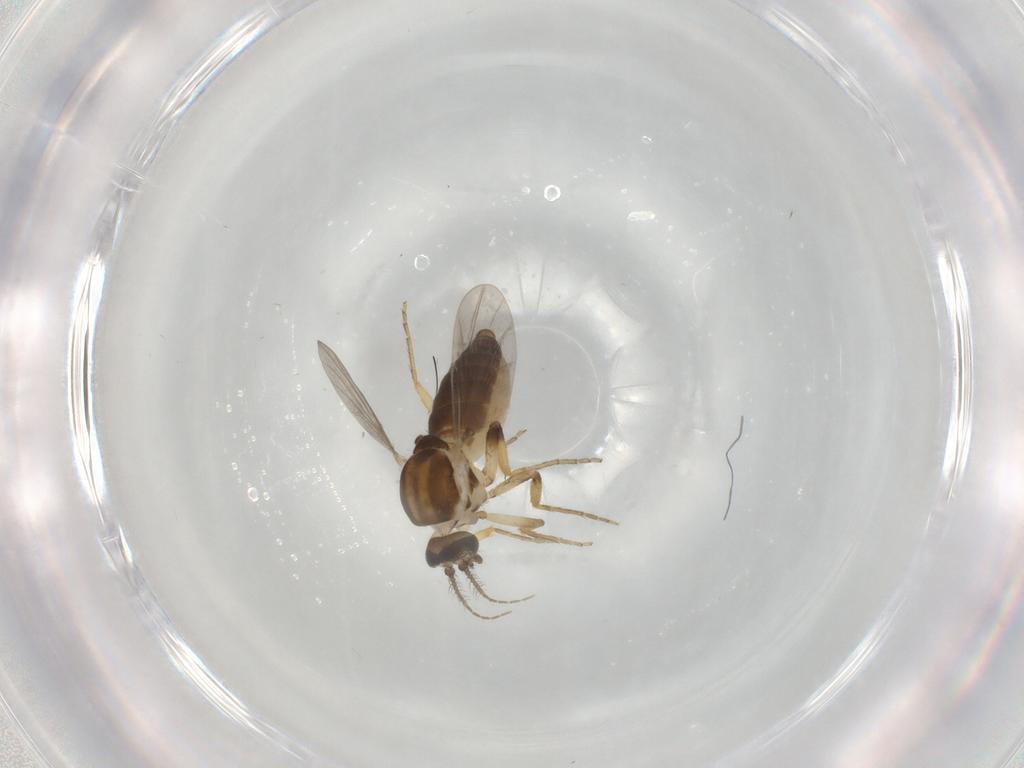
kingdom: Animalia
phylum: Arthropoda
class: Insecta
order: Diptera
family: Ceratopogonidae
